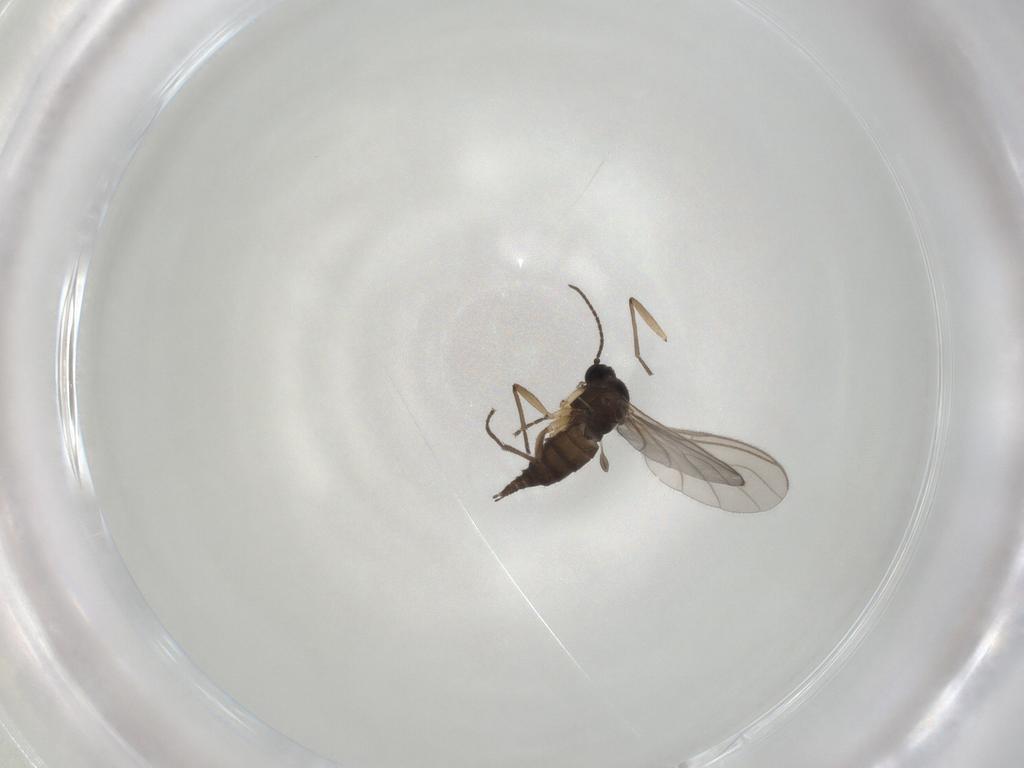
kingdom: Animalia
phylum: Arthropoda
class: Insecta
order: Diptera
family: Sciaridae
